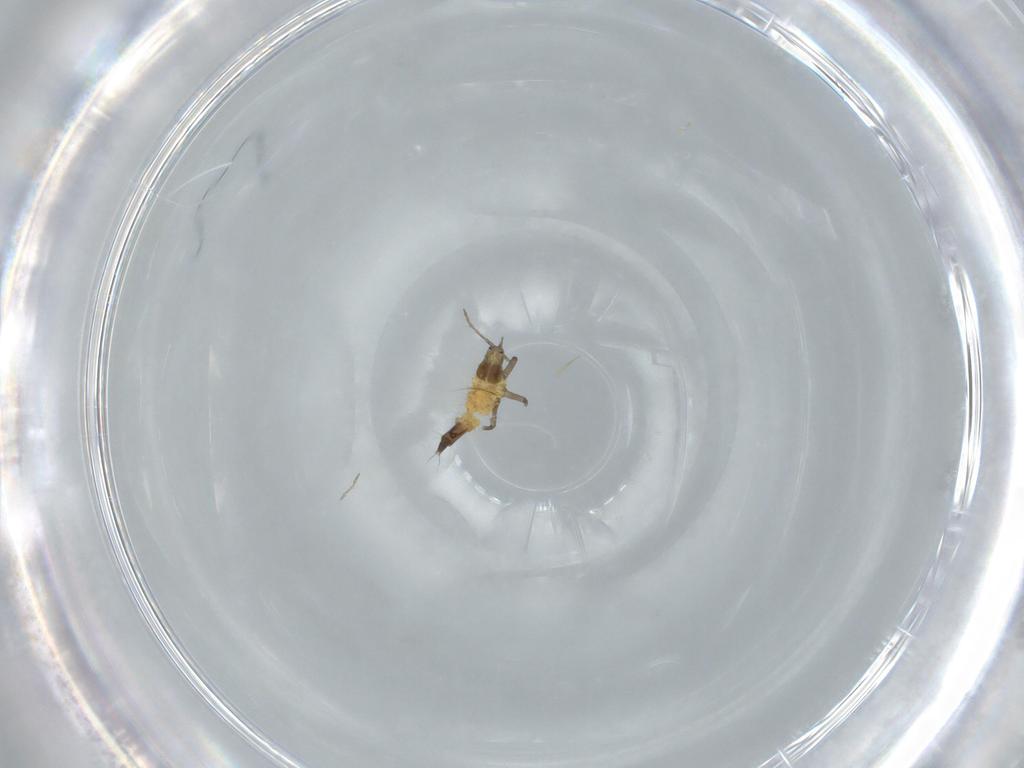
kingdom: Animalia
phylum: Arthropoda
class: Insecta
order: Thysanoptera
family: Phlaeothripidae
